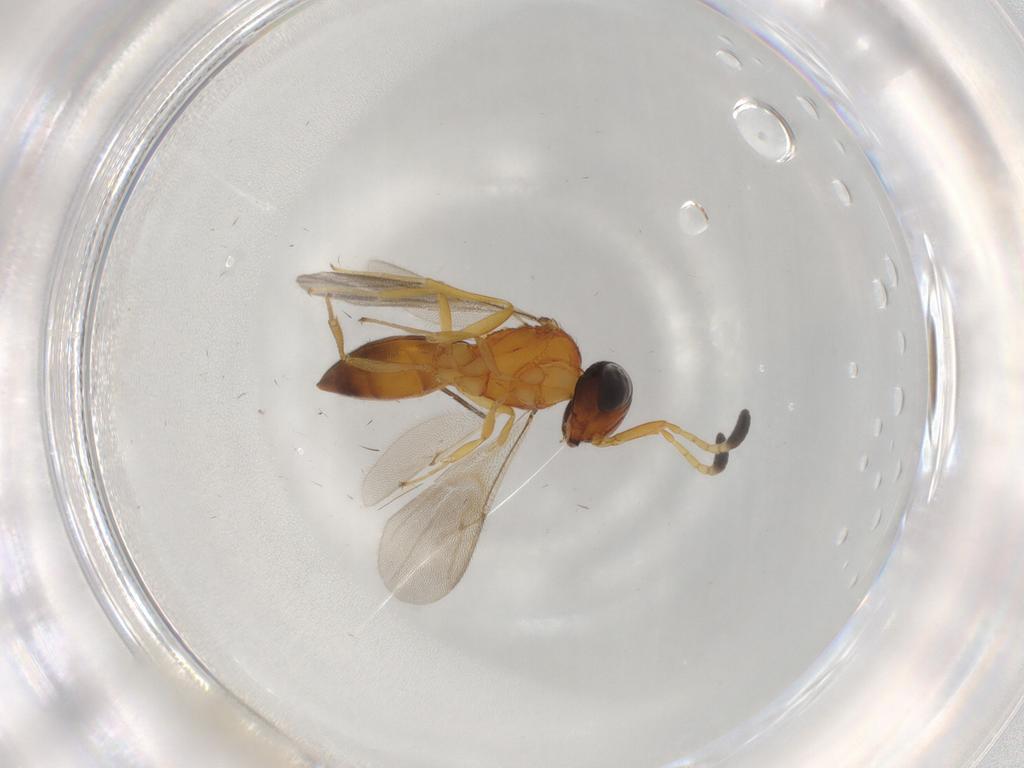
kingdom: Animalia
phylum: Arthropoda
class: Insecta
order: Hymenoptera
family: Scelionidae
